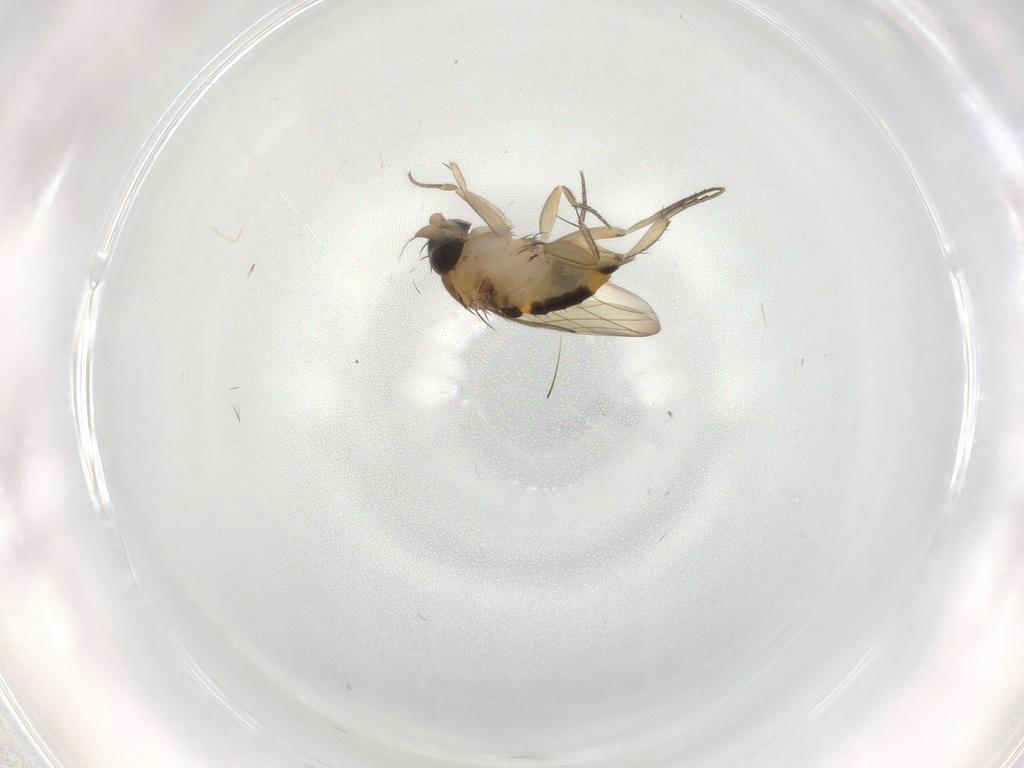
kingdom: Animalia
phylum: Arthropoda
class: Insecta
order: Diptera
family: Phoridae
